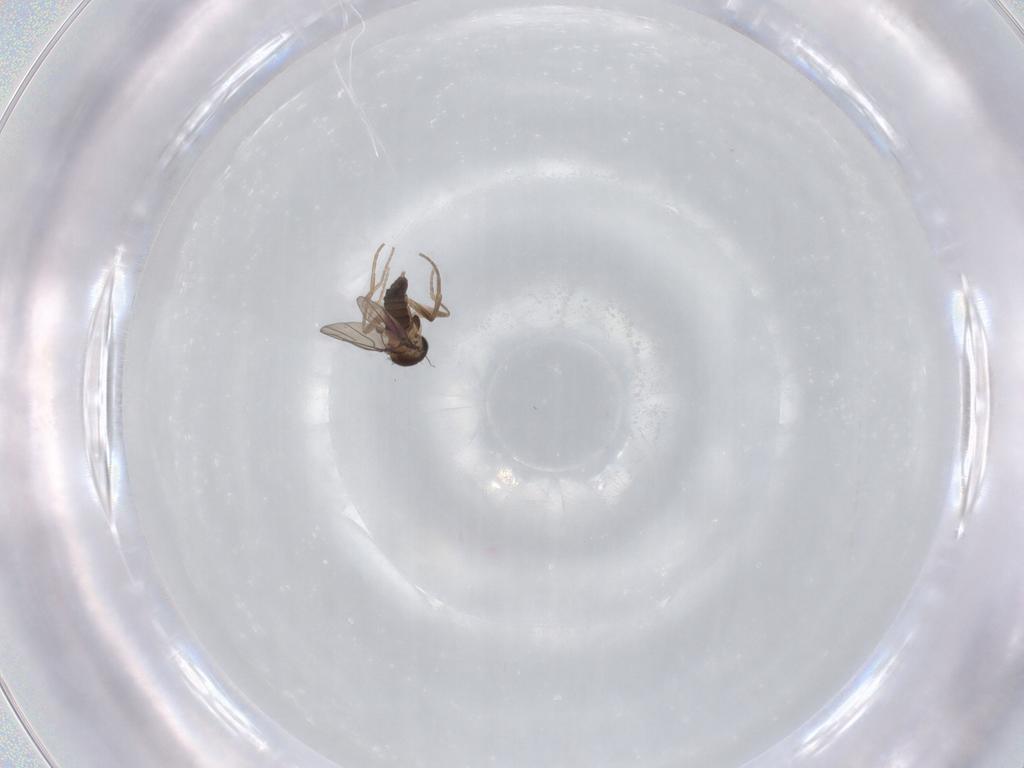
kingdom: Animalia
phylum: Arthropoda
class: Insecta
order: Diptera
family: Phoridae
